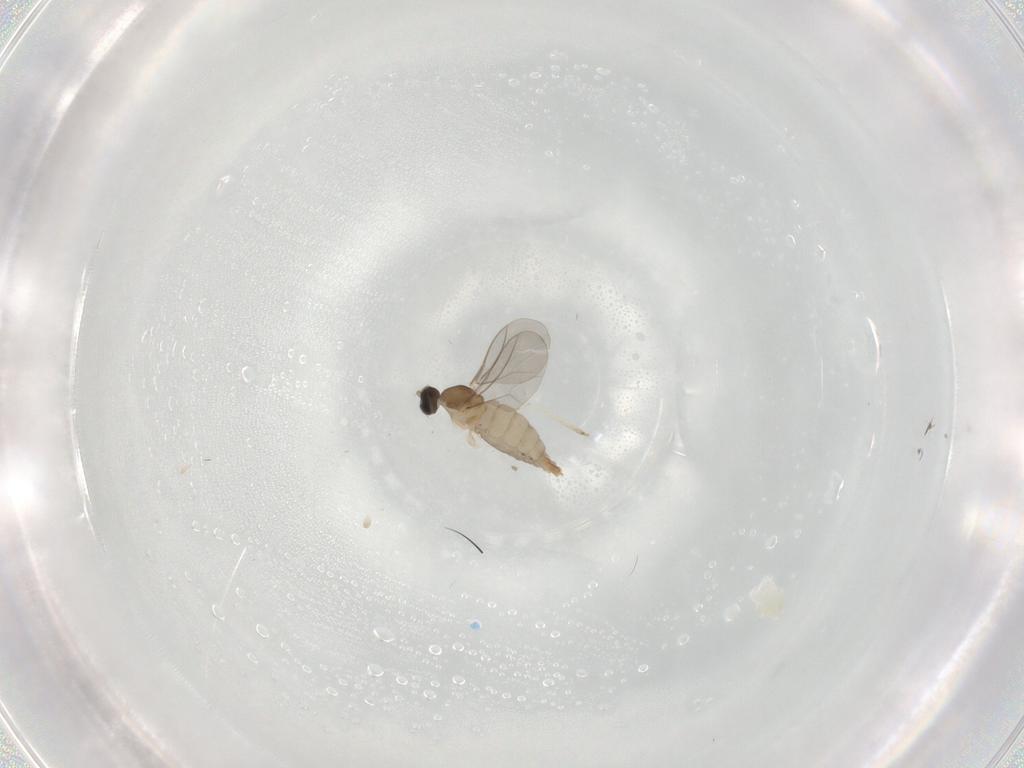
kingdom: Animalia
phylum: Arthropoda
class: Insecta
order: Diptera
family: Cecidomyiidae
